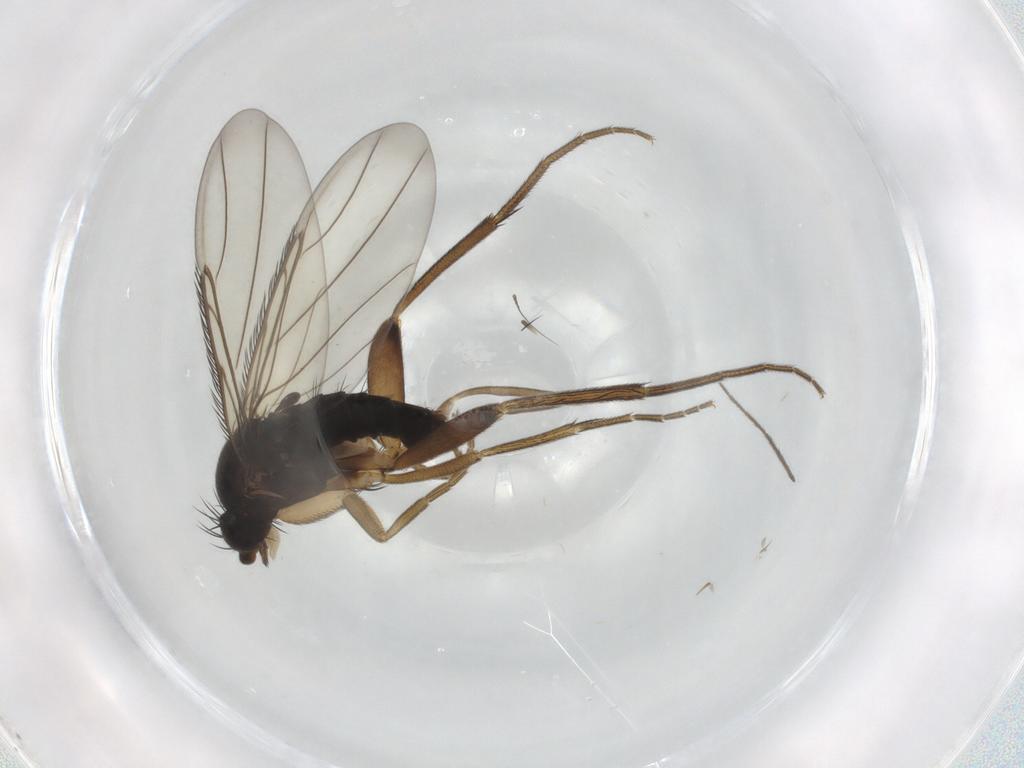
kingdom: Animalia
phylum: Arthropoda
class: Insecta
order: Diptera
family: Phoridae
